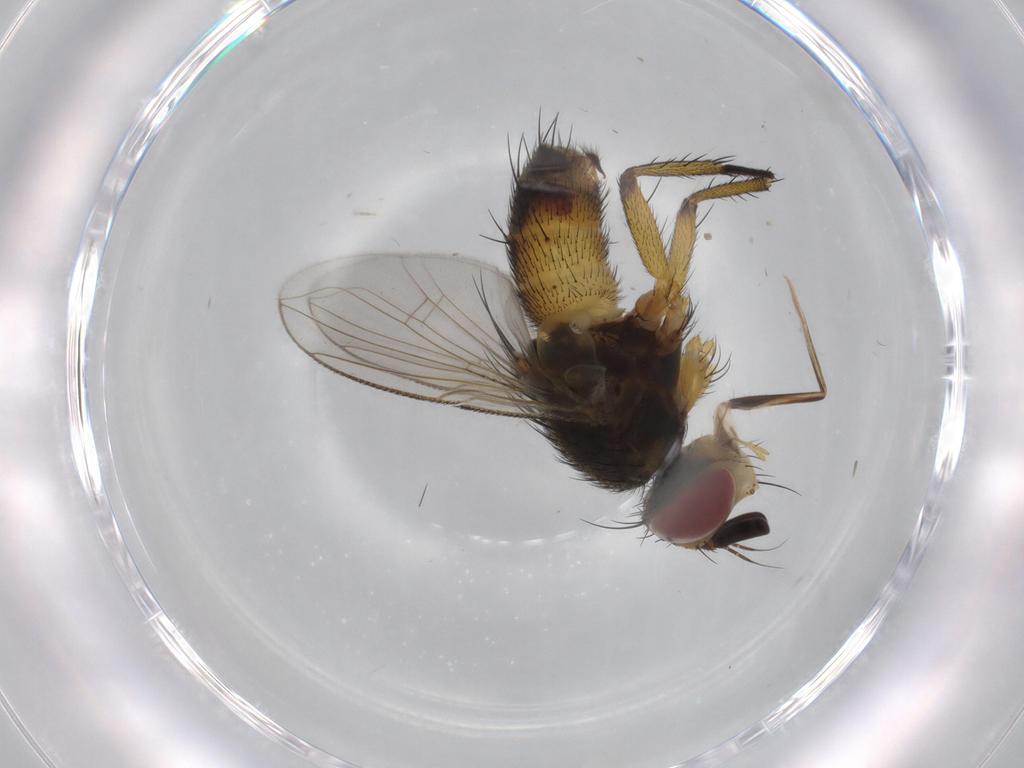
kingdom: Animalia
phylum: Arthropoda
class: Insecta
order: Diptera
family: Tachinidae
